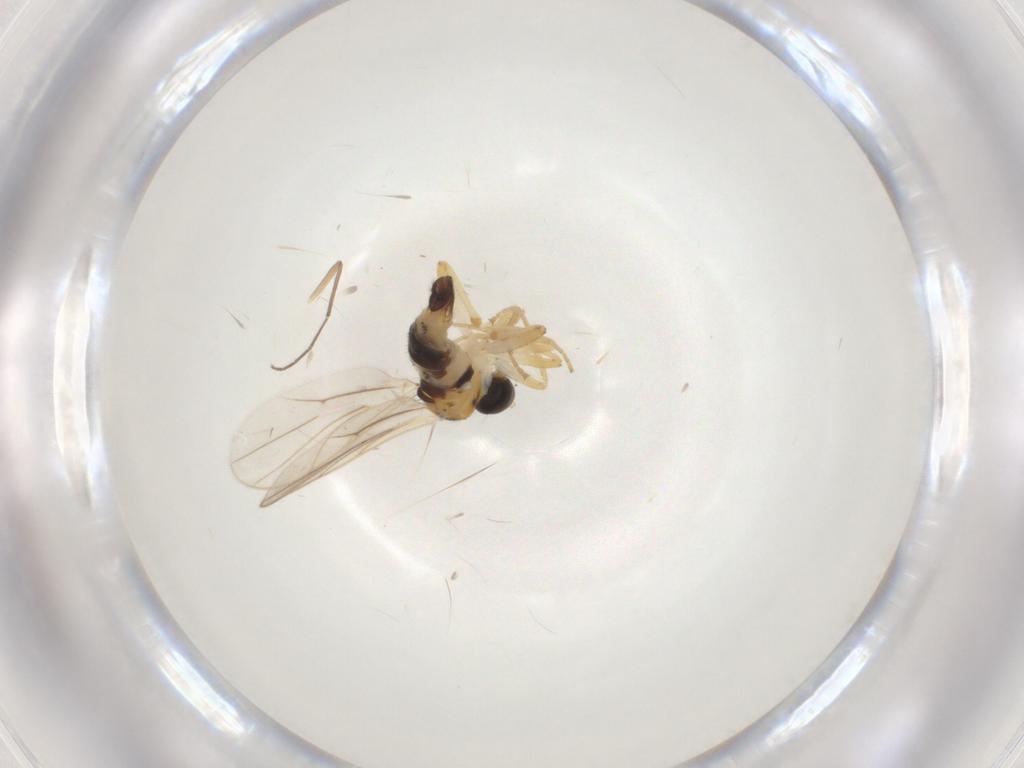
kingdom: Animalia
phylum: Arthropoda
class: Insecta
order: Diptera
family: Hybotidae
